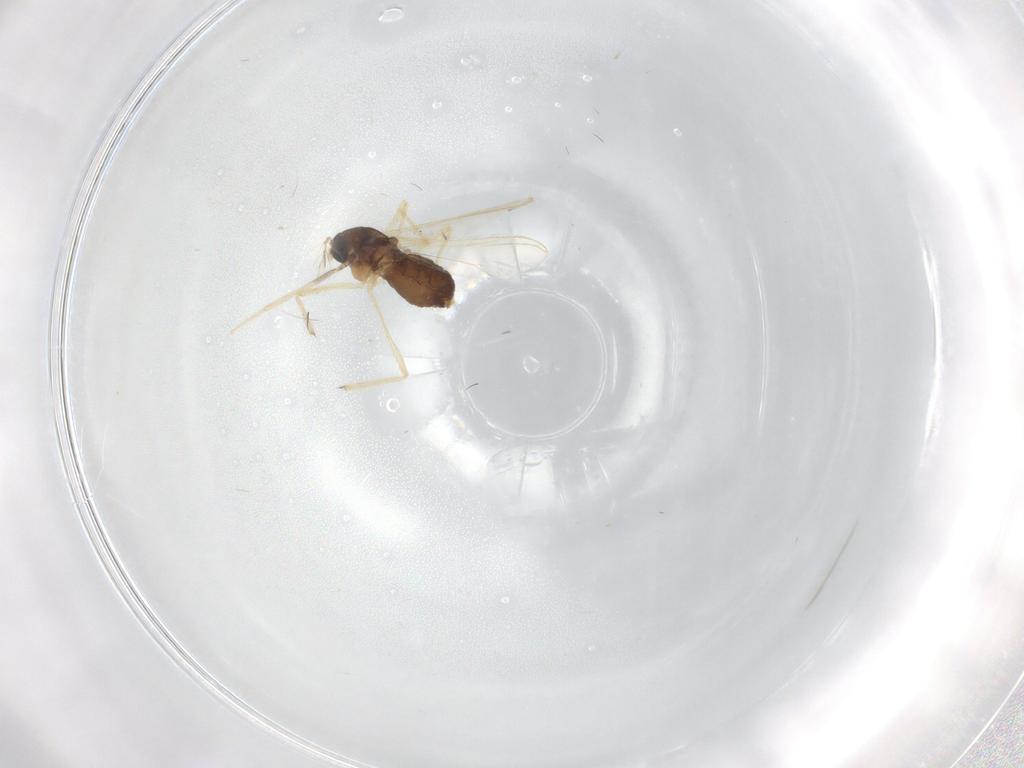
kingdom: Animalia
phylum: Arthropoda
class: Insecta
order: Diptera
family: Chironomidae
